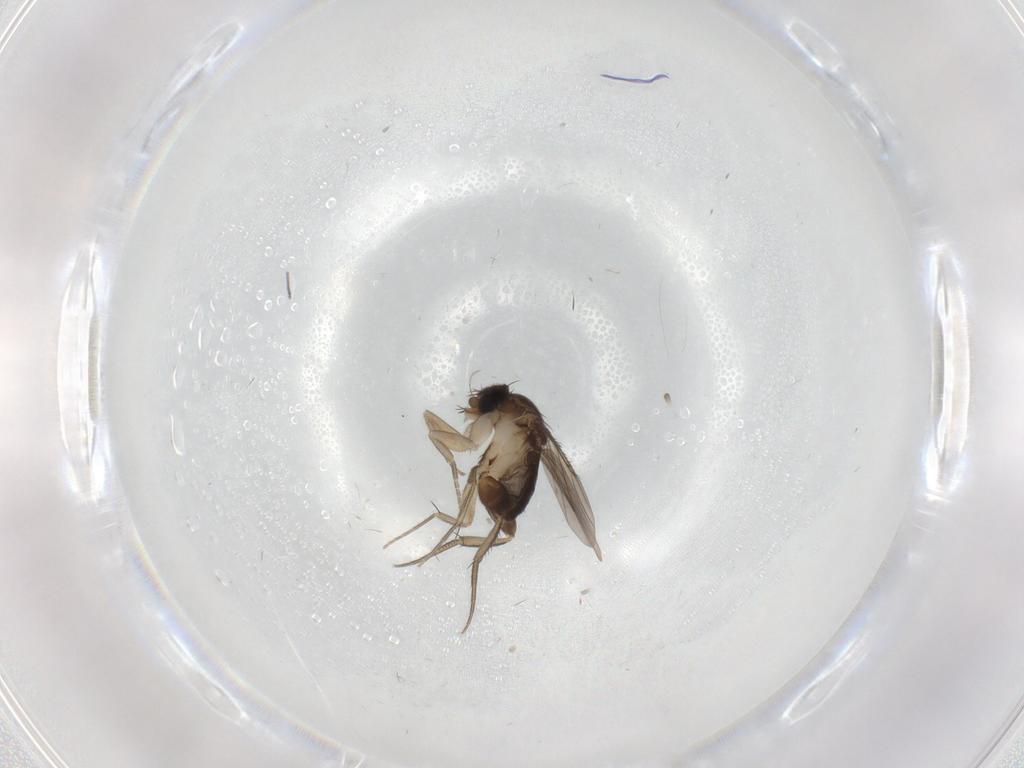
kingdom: Animalia
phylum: Arthropoda
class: Insecta
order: Diptera
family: Phoridae
